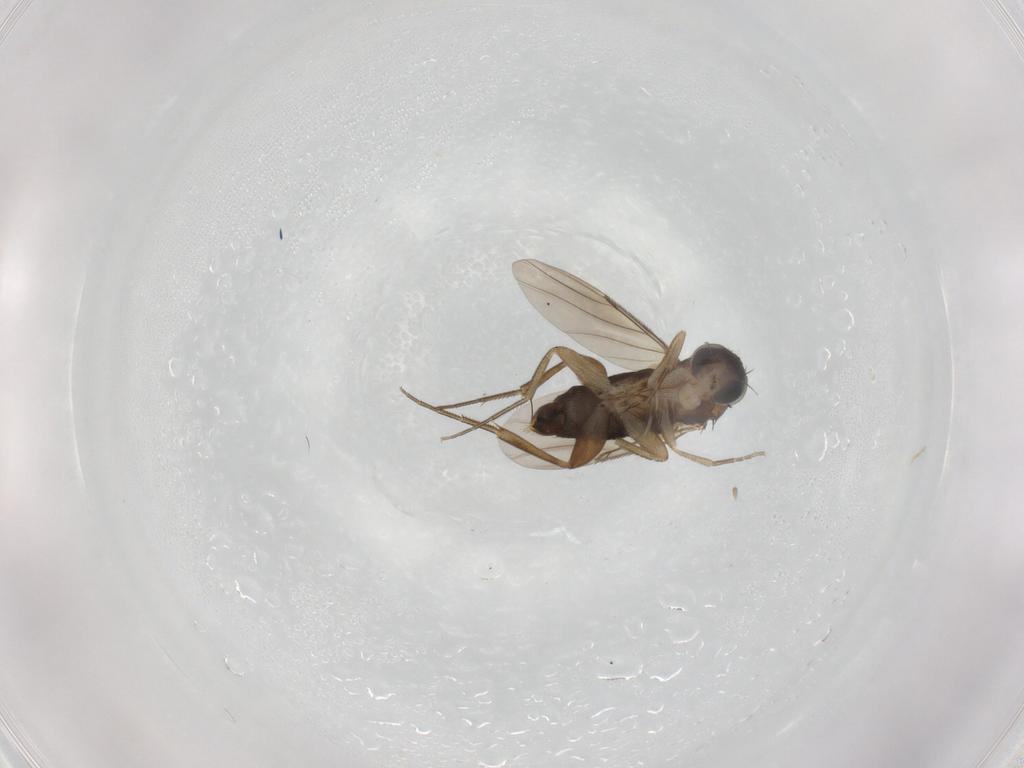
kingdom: Animalia
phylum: Arthropoda
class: Insecta
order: Diptera
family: Phoridae
